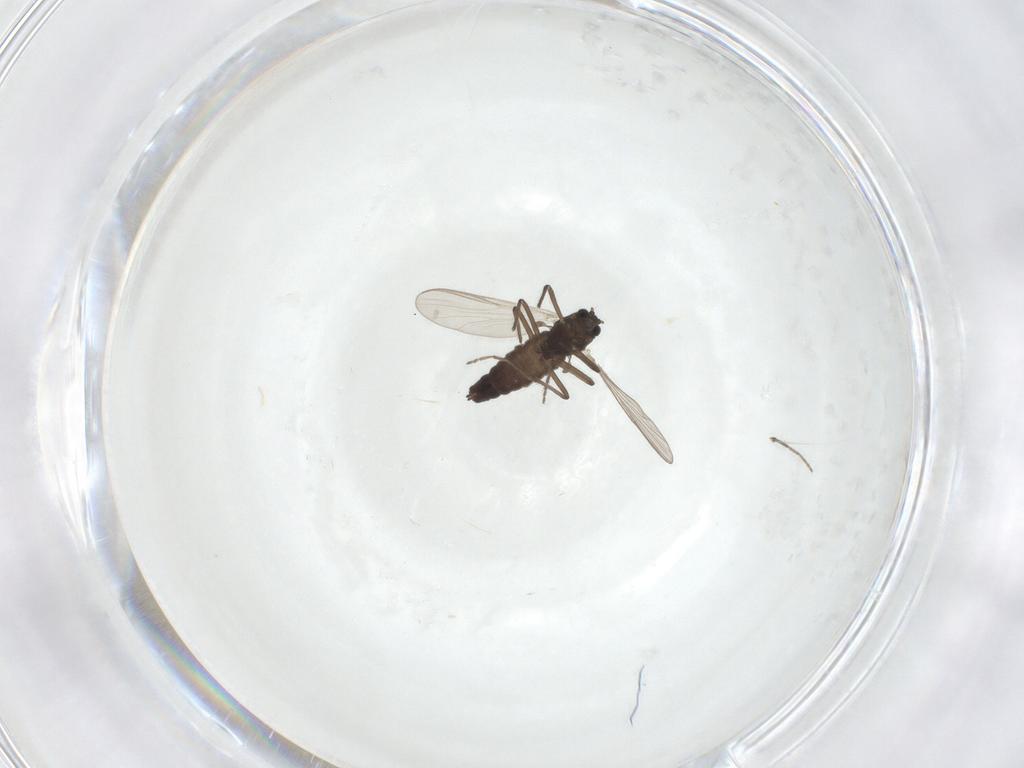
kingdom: Animalia
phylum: Arthropoda
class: Insecta
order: Diptera
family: Chironomidae
